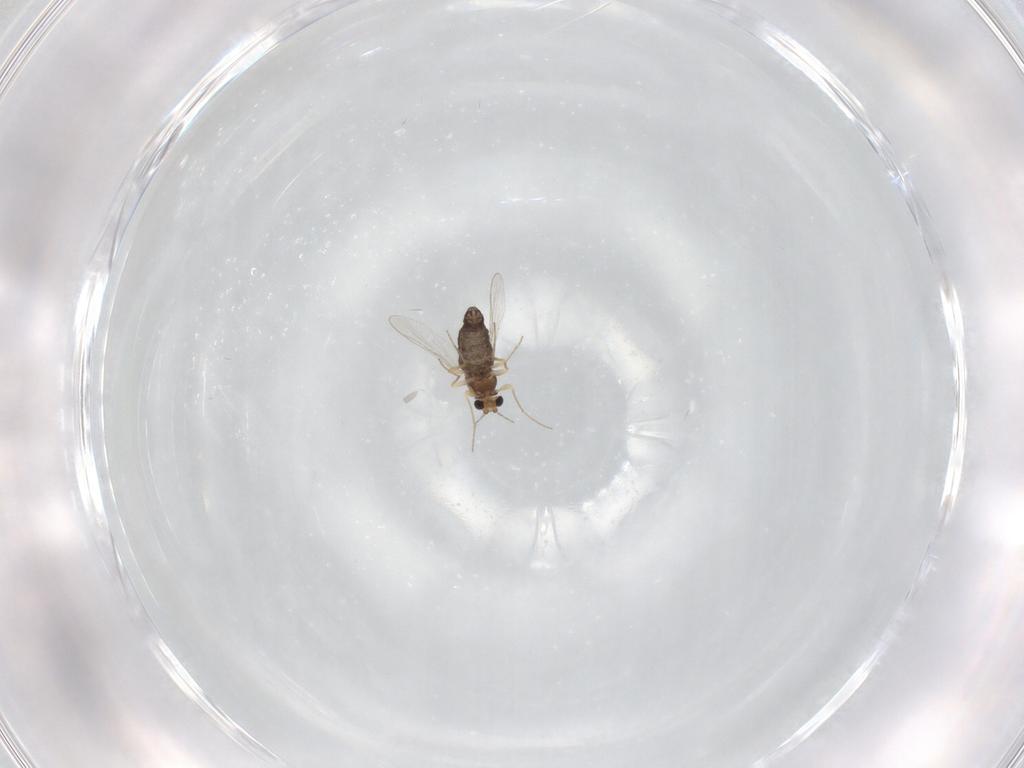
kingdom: Animalia
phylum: Arthropoda
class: Insecta
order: Diptera
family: Chironomidae
